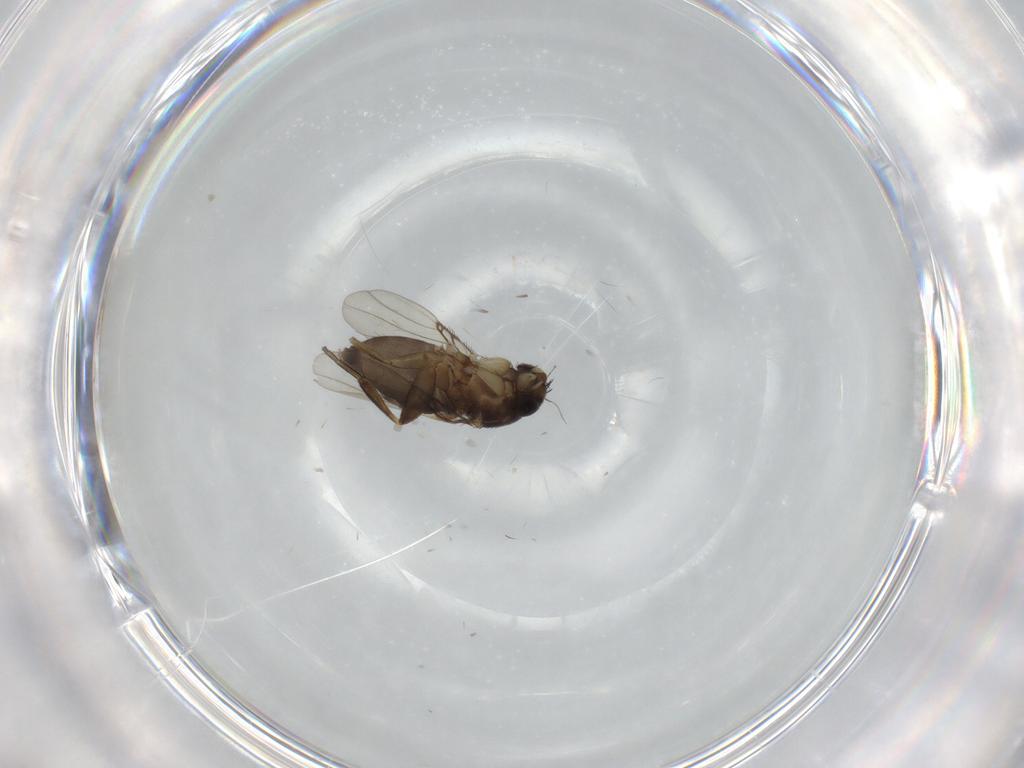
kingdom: Animalia
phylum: Arthropoda
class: Insecta
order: Diptera
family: Phoridae
